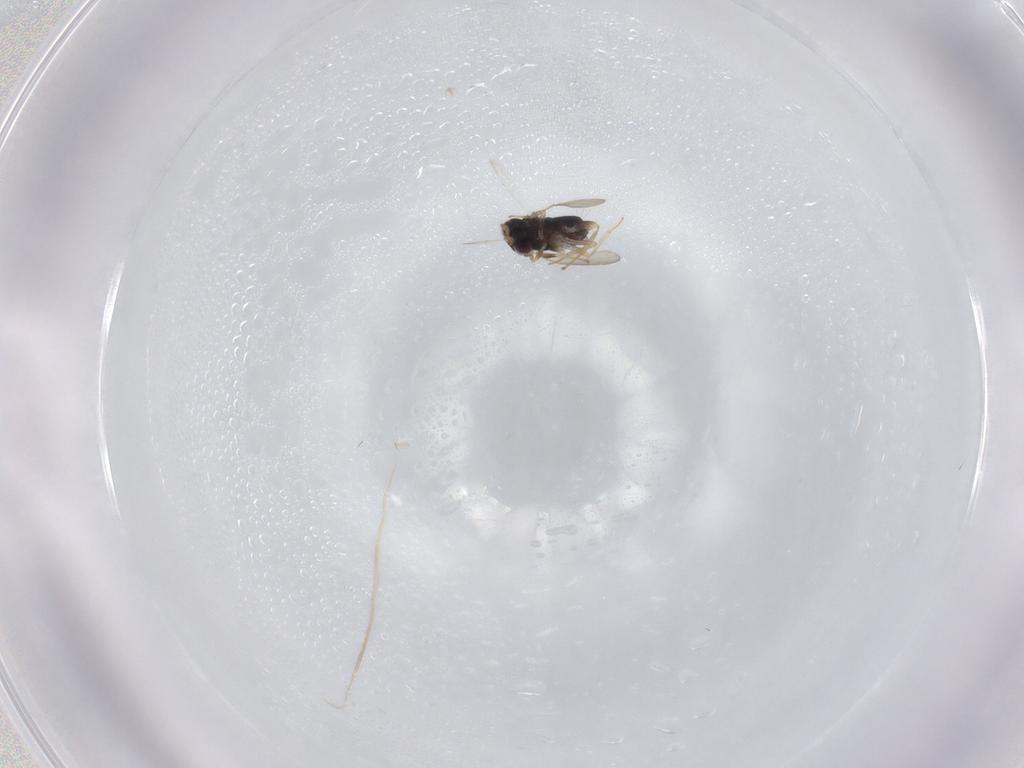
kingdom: Animalia
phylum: Arthropoda
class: Insecta
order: Hymenoptera
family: Aphelinidae
